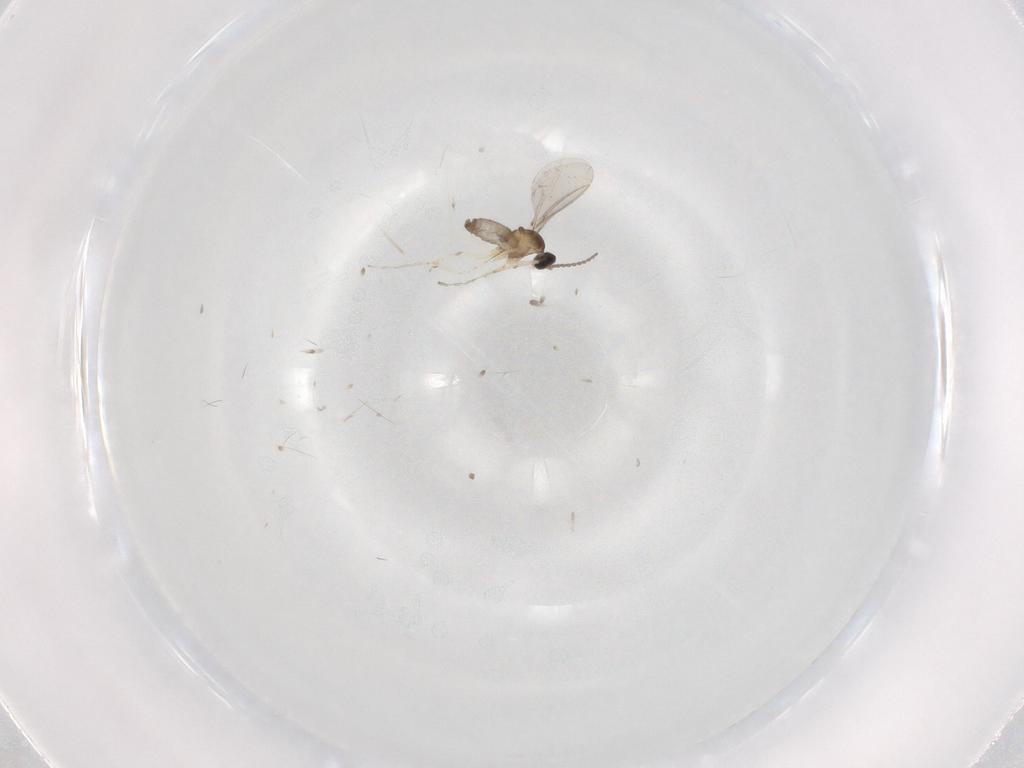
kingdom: Animalia
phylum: Arthropoda
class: Insecta
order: Diptera
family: Cecidomyiidae
